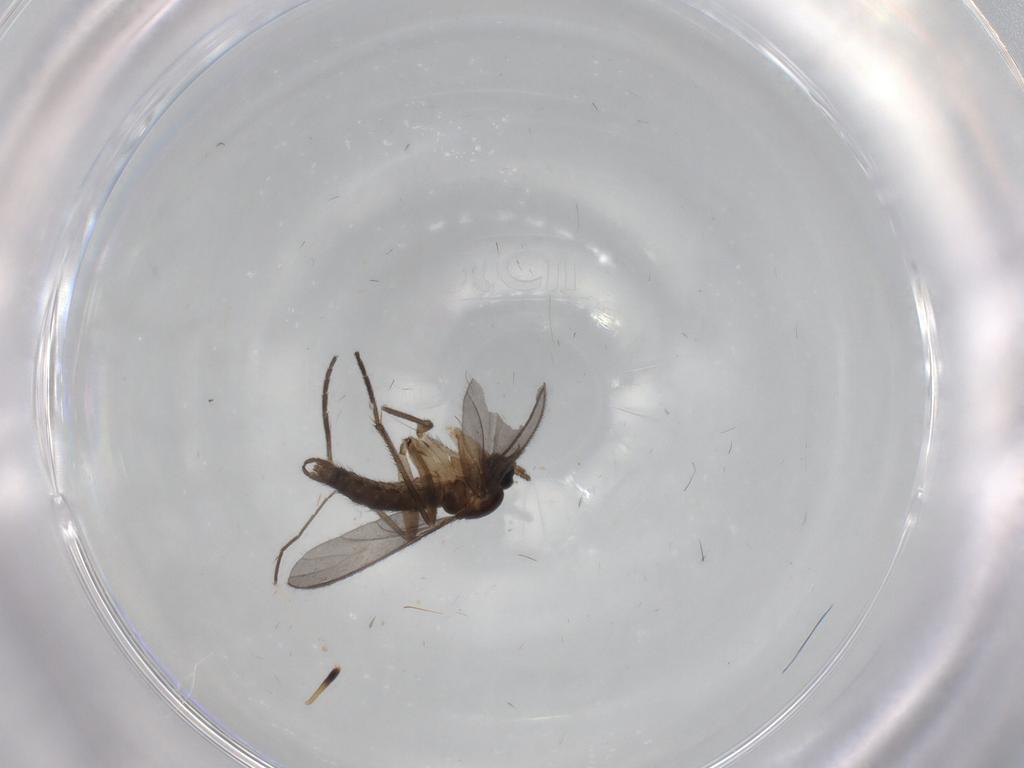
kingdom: Animalia
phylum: Arthropoda
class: Insecta
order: Diptera
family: Sciaridae
